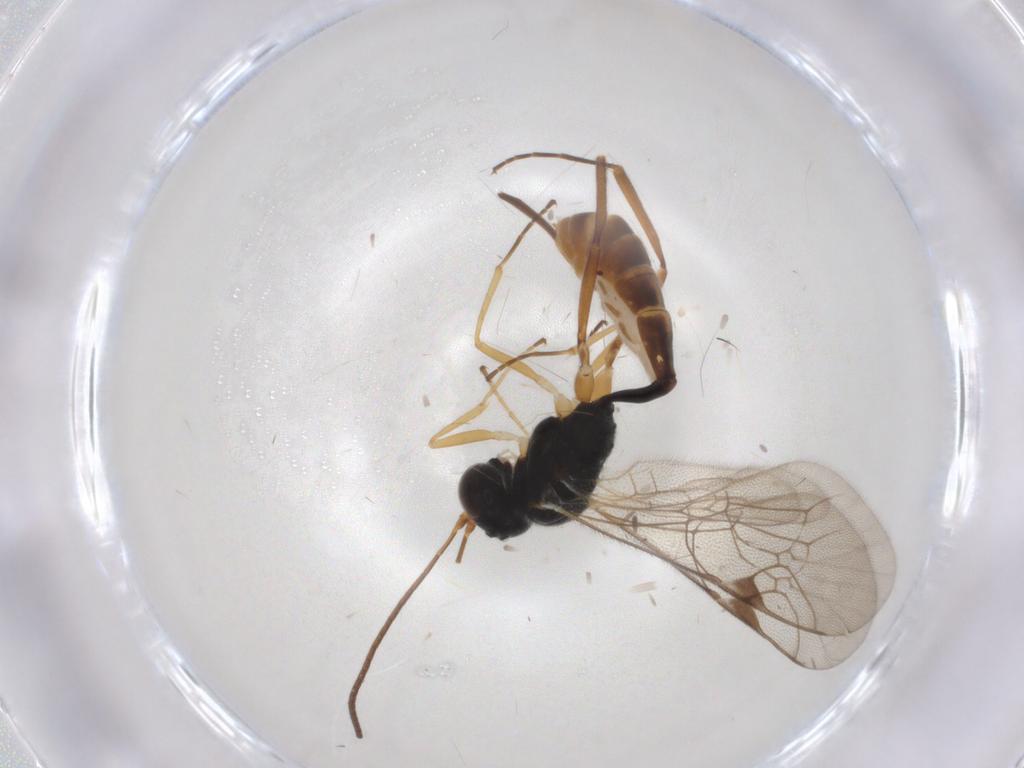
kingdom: Animalia
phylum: Arthropoda
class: Insecta
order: Hymenoptera
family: Ichneumonidae
